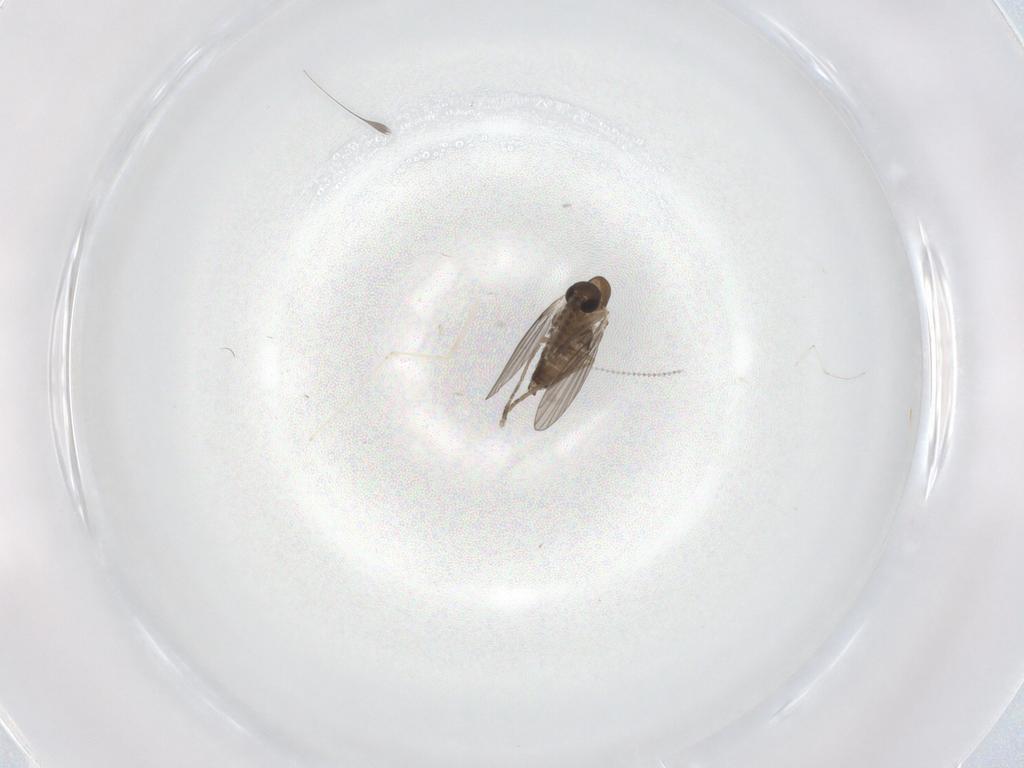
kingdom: Animalia
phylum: Arthropoda
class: Insecta
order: Diptera
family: Cecidomyiidae
